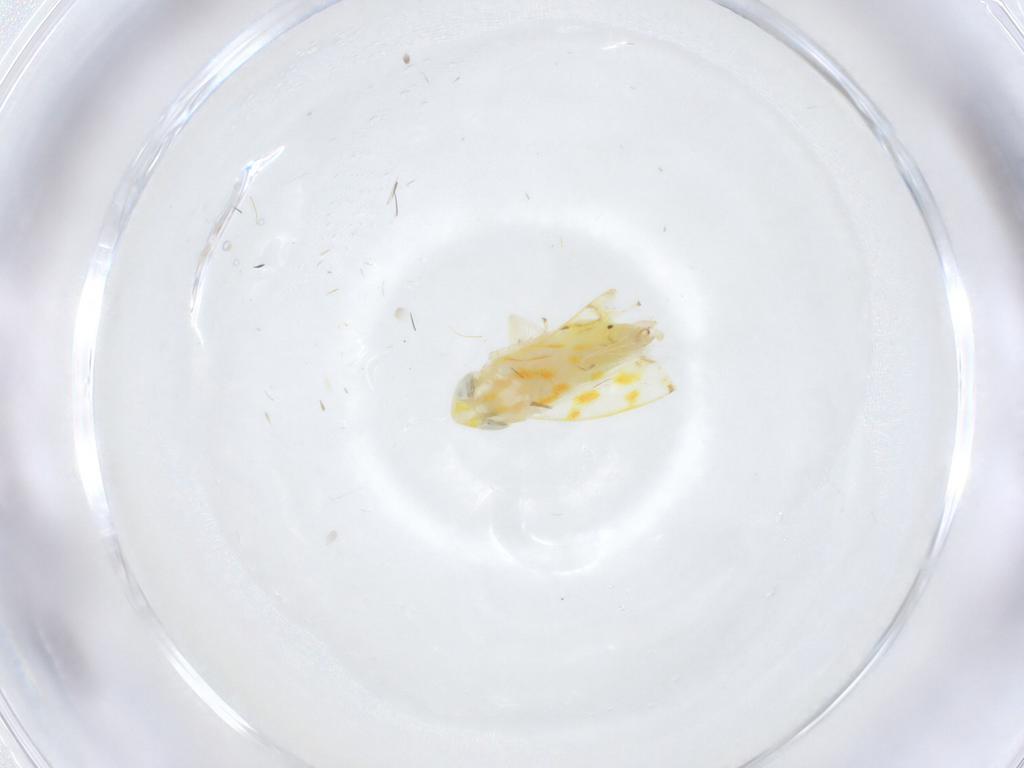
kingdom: Animalia
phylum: Arthropoda
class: Insecta
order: Hemiptera
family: Cicadellidae
